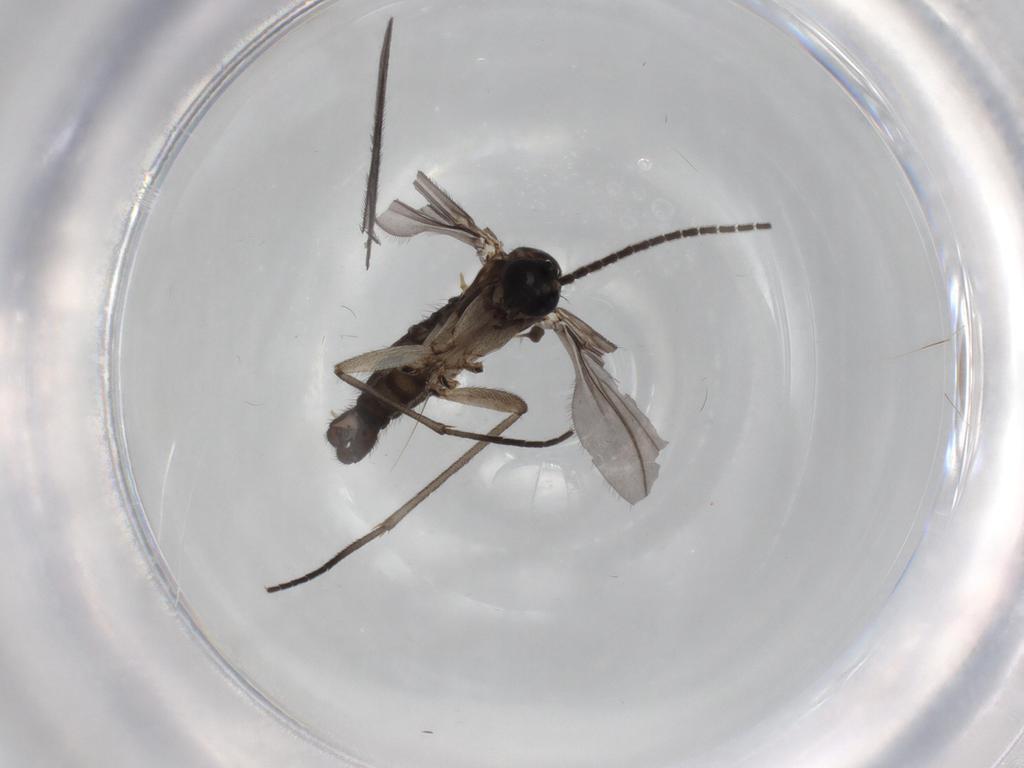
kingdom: Animalia
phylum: Arthropoda
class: Insecta
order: Diptera
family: Sciaridae
